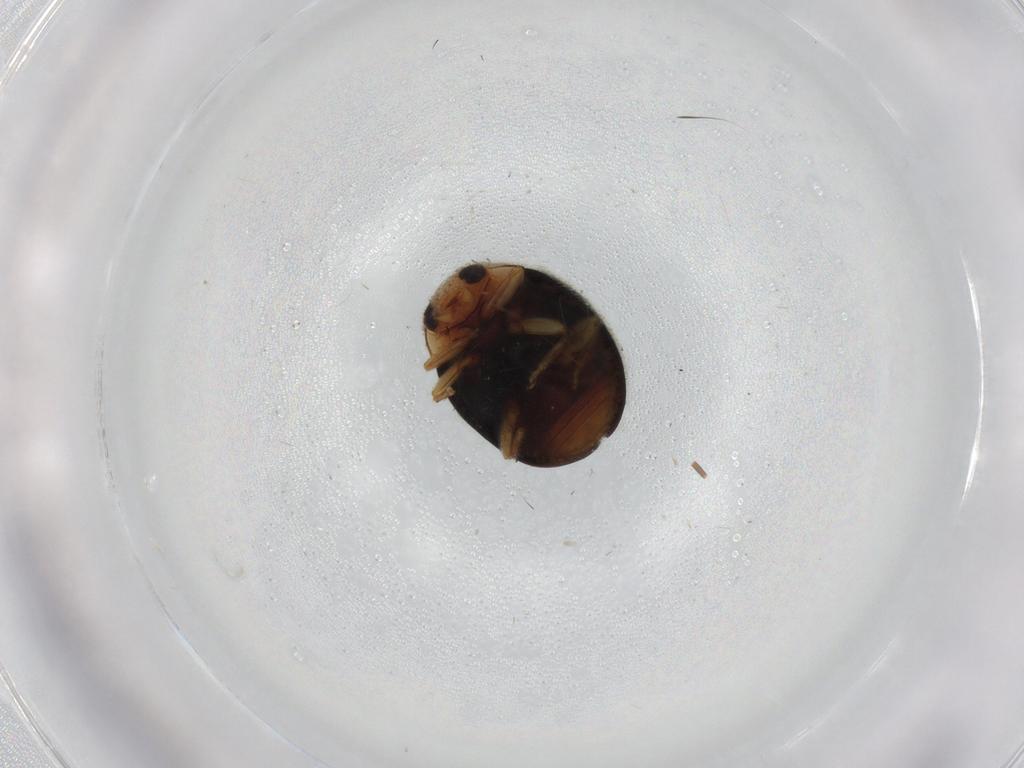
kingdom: Animalia
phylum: Arthropoda
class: Insecta
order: Coleoptera
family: Coccinellidae
